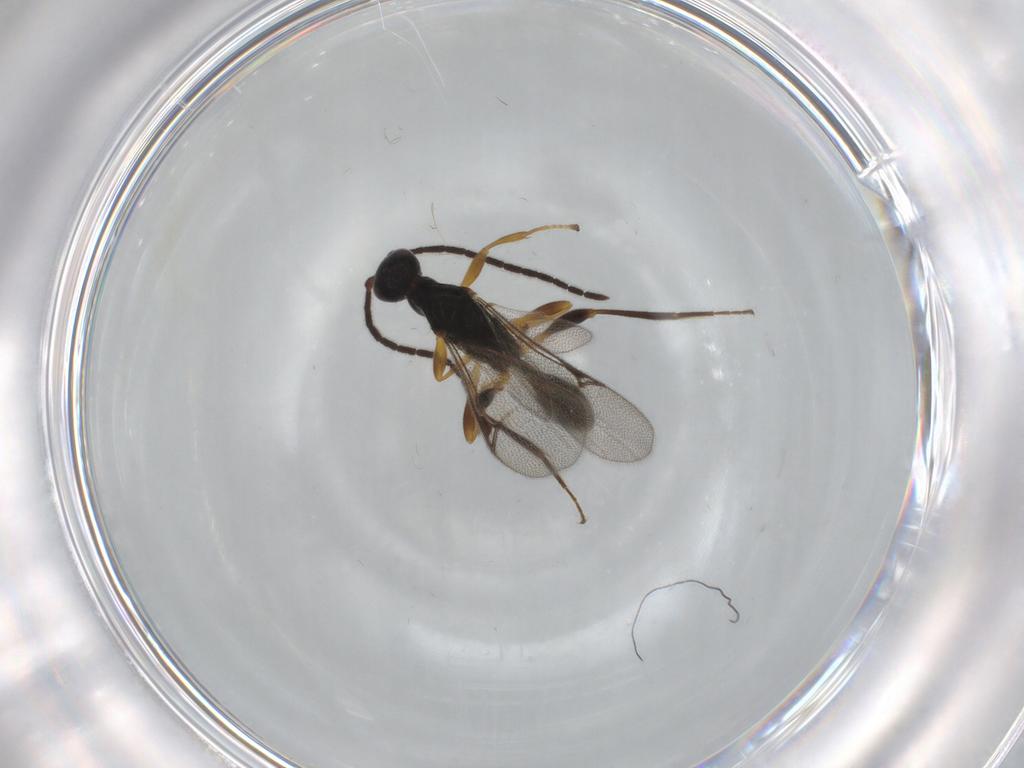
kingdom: Animalia
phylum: Arthropoda
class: Insecta
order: Hymenoptera
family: Proctotrupidae
